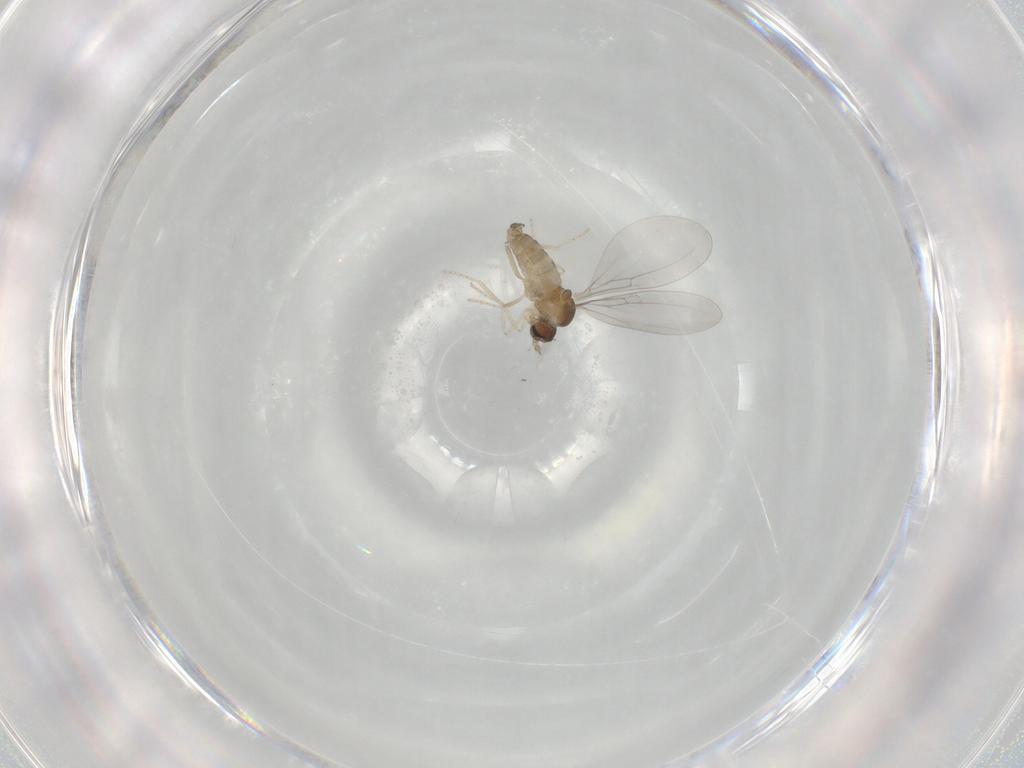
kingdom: Animalia
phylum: Arthropoda
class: Insecta
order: Diptera
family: Cecidomyiidae
